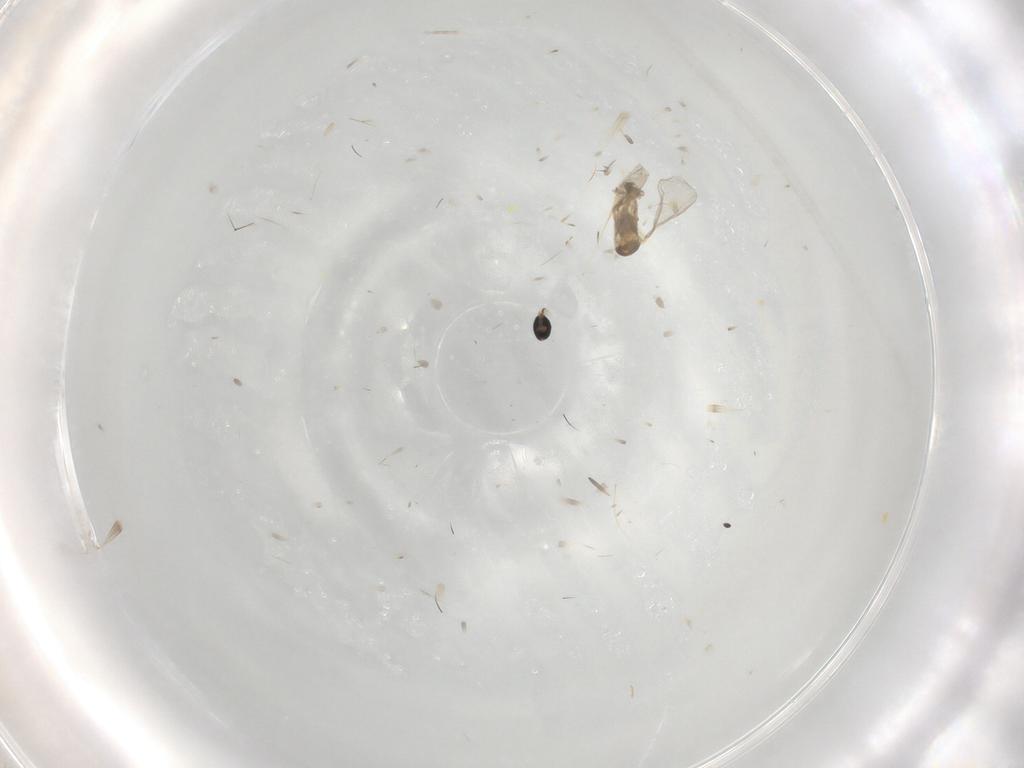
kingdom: Animalia
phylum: Arthropoda
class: Insecta
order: Diptera
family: Cecidomyiidae
